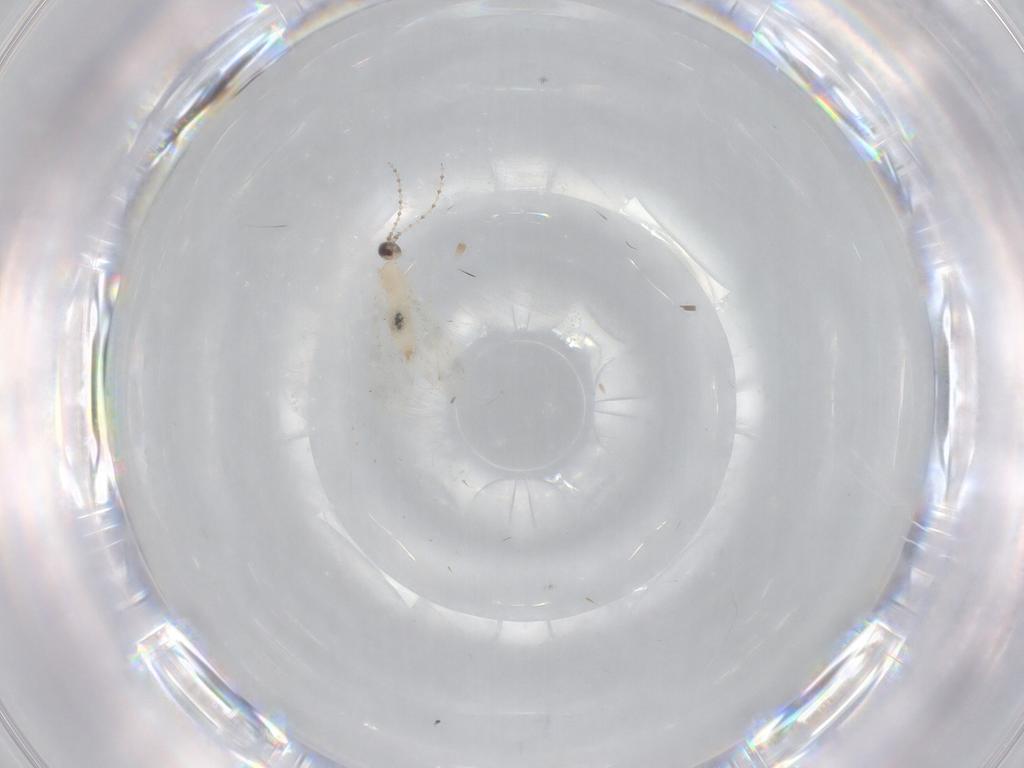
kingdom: Animalia
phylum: Arthropoda
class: Insecta
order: Diptera
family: Cecidomyiidae
